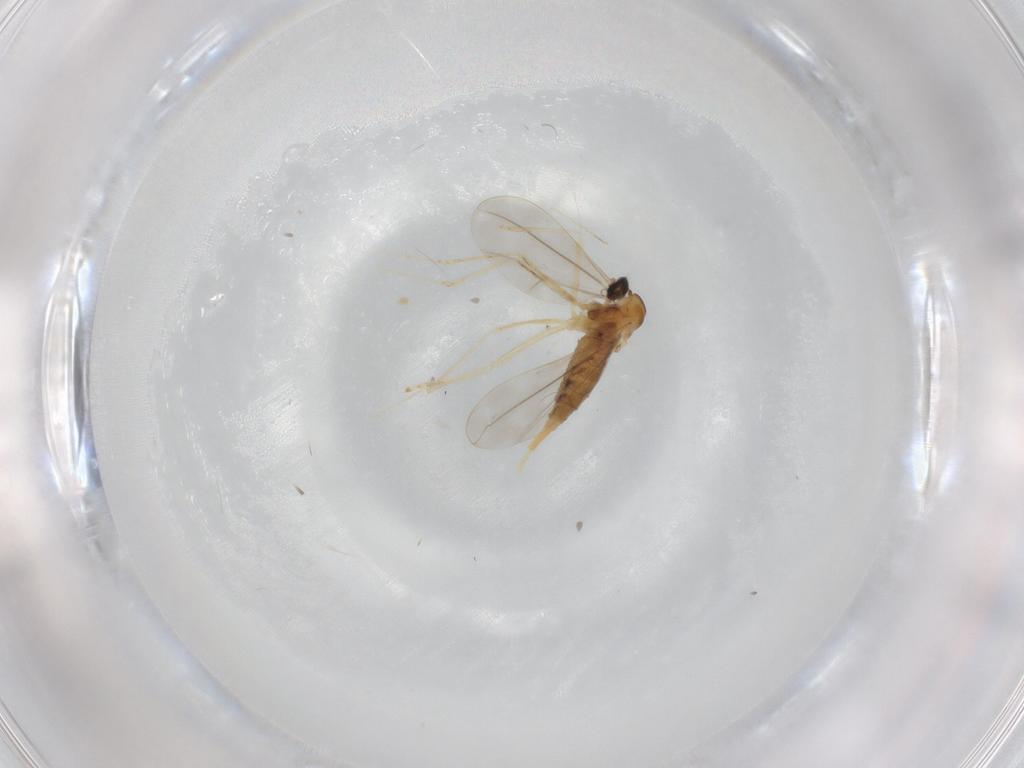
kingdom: Animalia
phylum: Arthropoda
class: Insecta
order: Diptera
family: Cecidomyiidae
